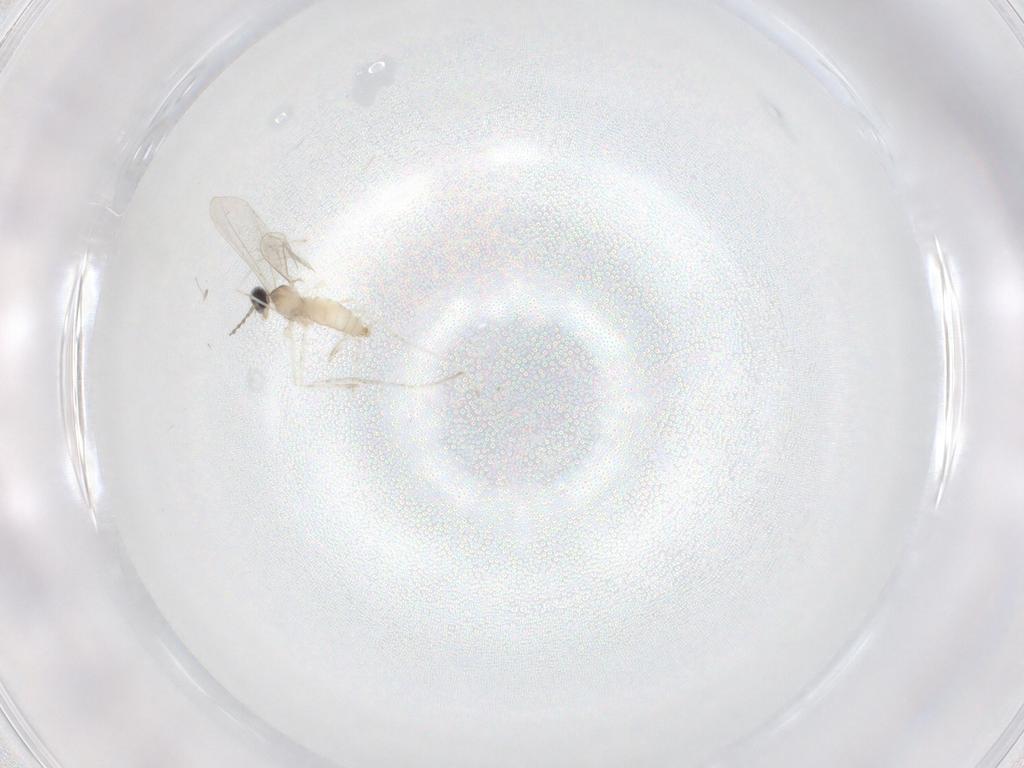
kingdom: Animalia
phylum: Arthropoda
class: Insecta
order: Diptera
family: Cecidomyiidae
